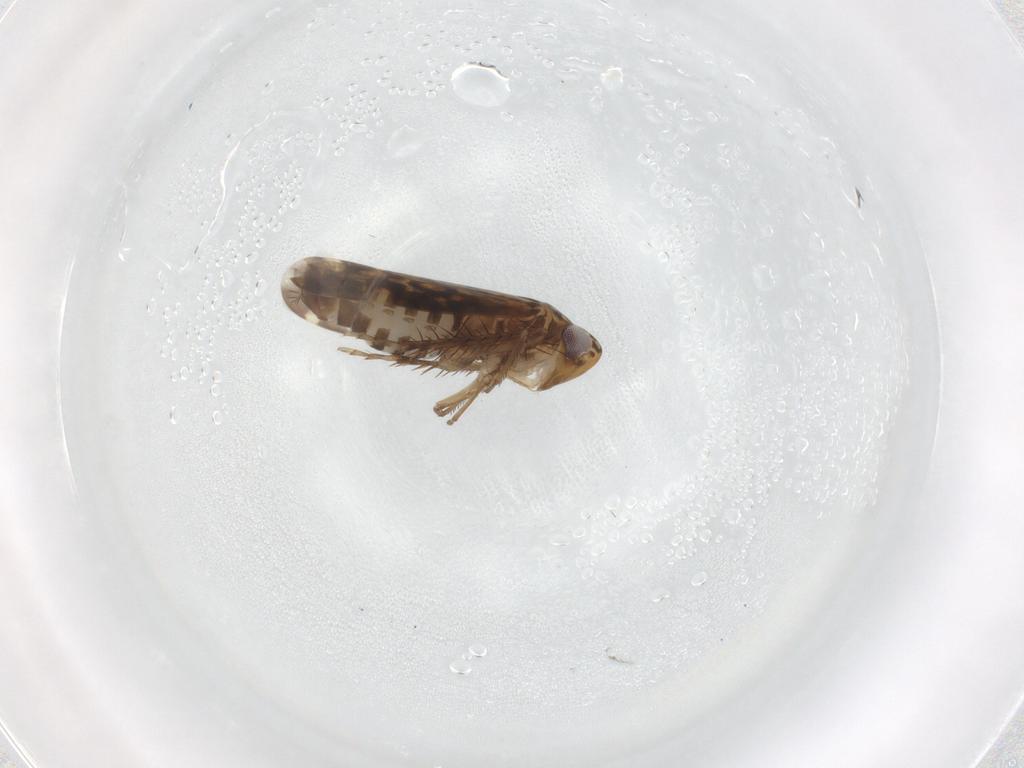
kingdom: Animalia
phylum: Arthropoda
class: Insecta
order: Hemiptera
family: Cicadellidae
